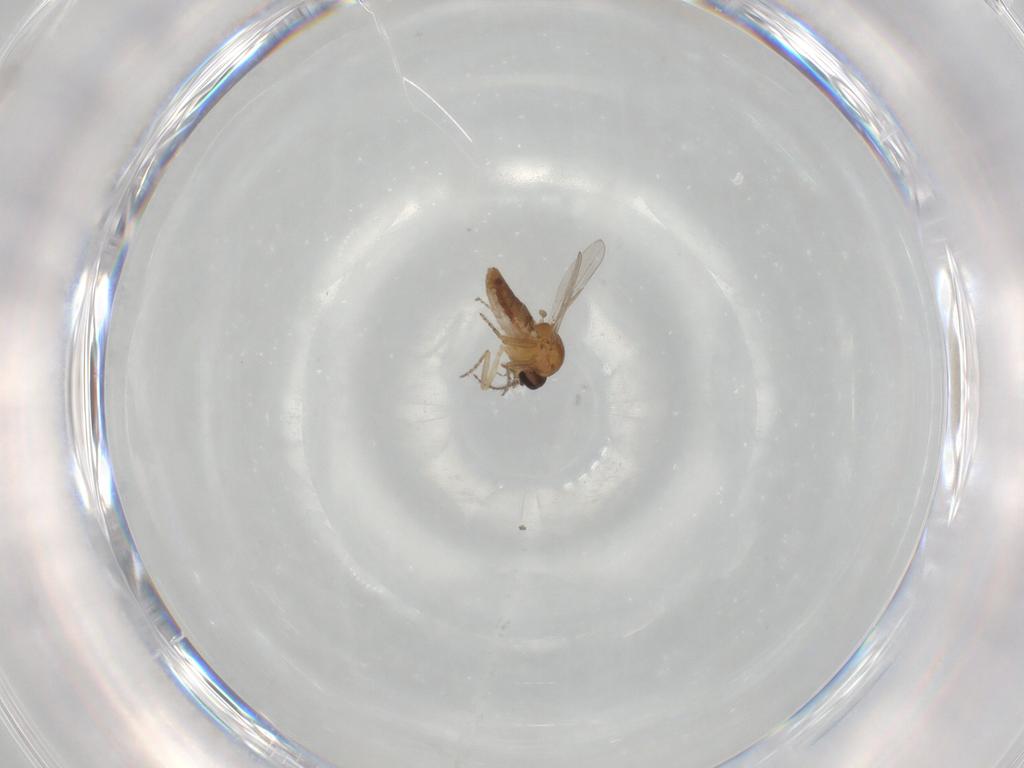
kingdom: Animalia
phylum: Arthropoda
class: Insecta
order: Diptera
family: Ceratopogonidae
